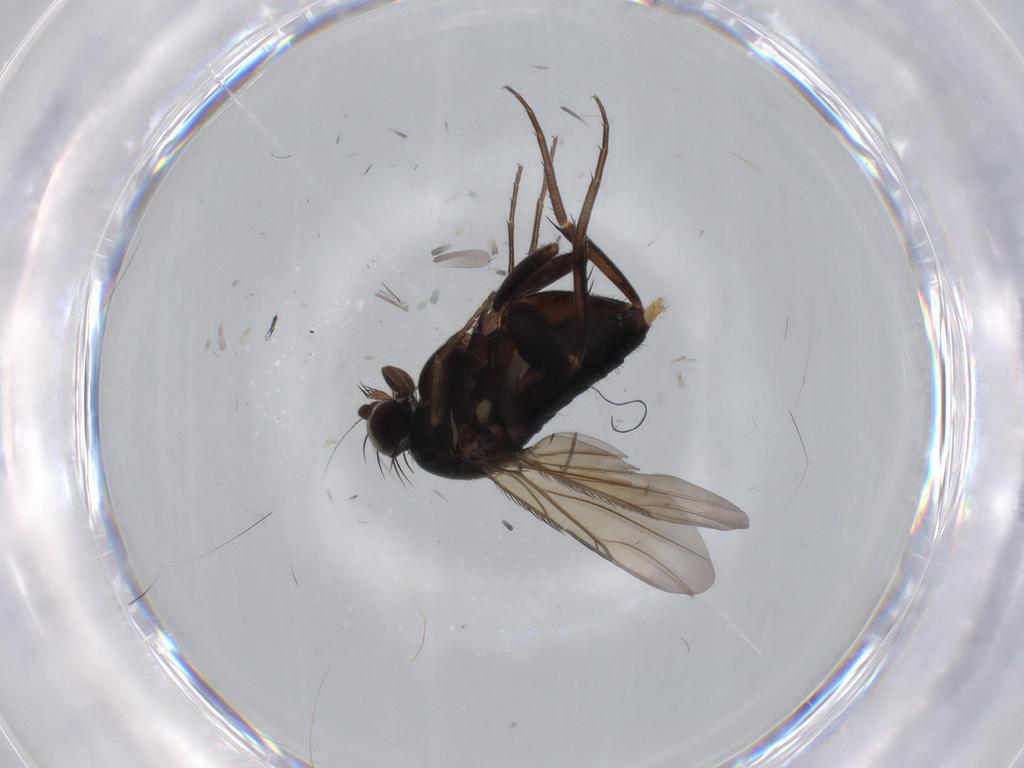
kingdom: Animalia
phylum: Arthropoda
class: Insecta
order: Diptera
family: Phoridae
